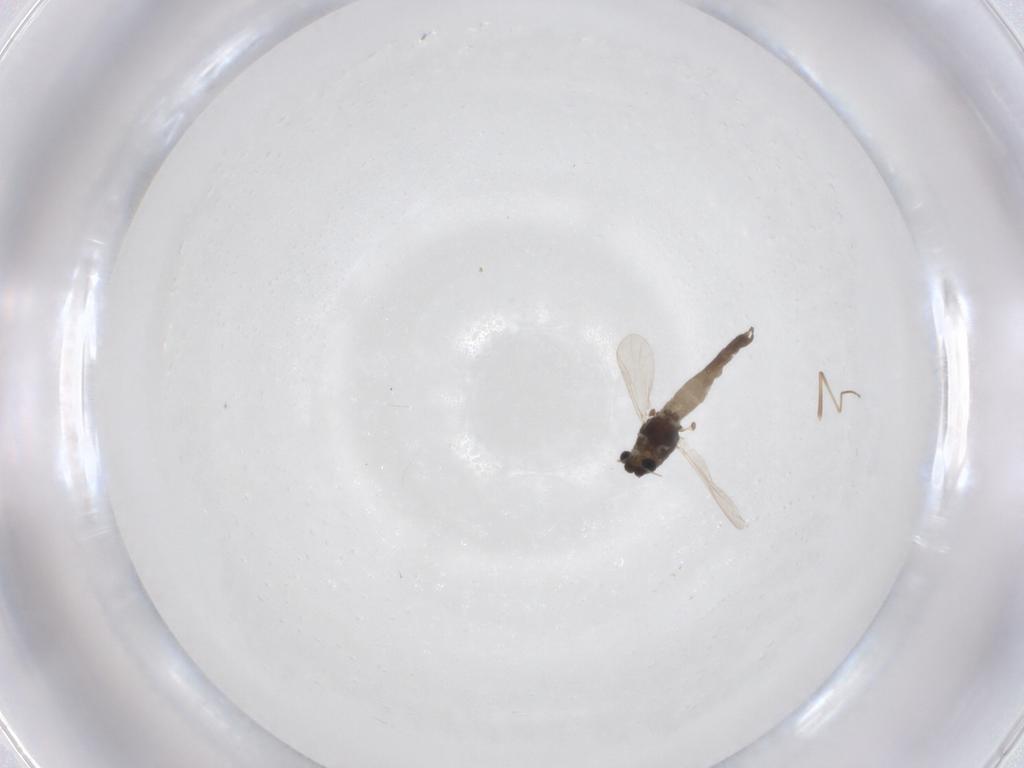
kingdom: Animalia
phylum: Arthropoda
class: Insecta
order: Diptera
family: Chironomidae
